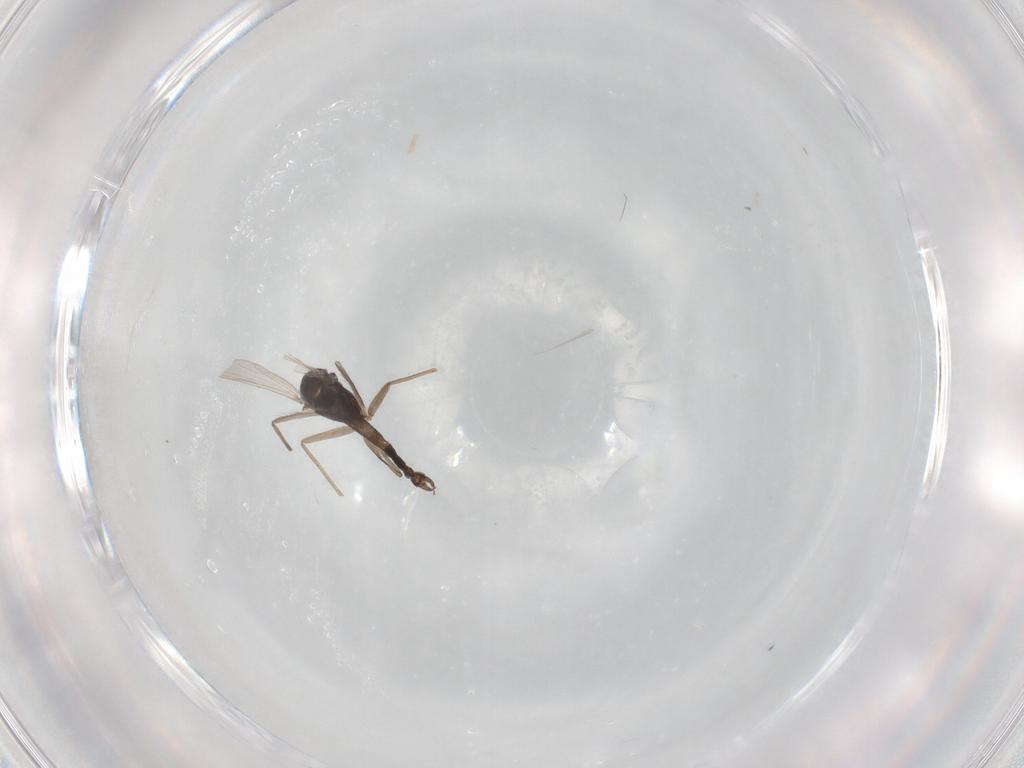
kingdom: Animalia
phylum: Arthropoda
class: Insecta
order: Diptera
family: Chironomidae
